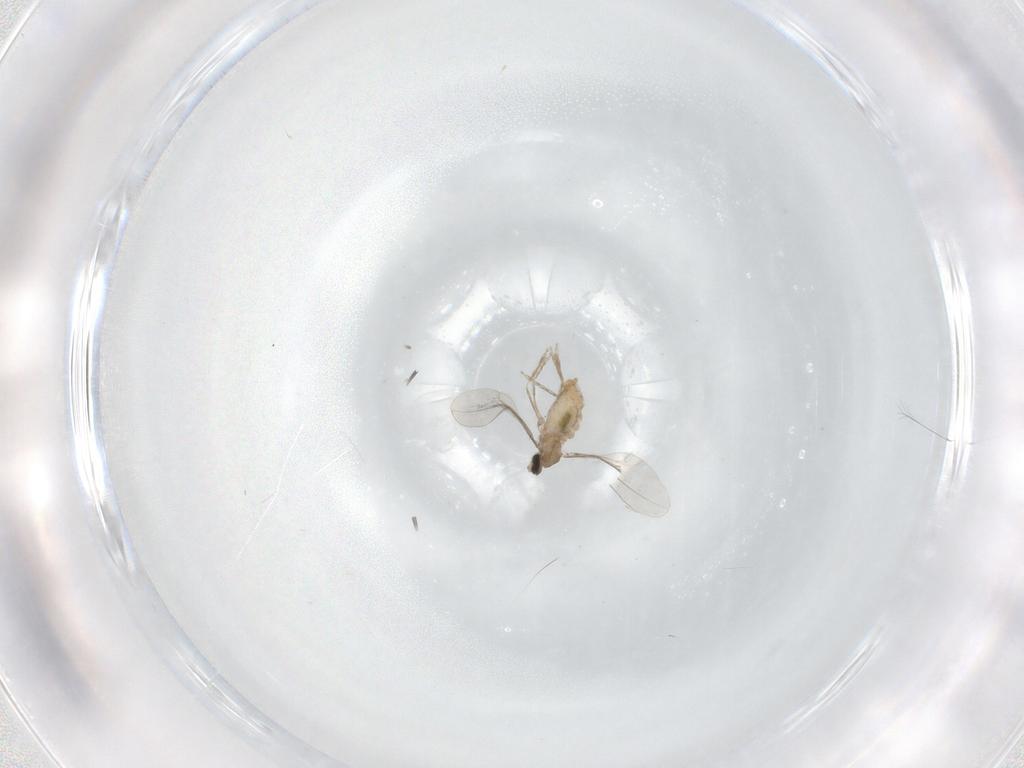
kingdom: Animalia
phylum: Arthropoda
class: Insecta
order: Diptera
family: Cecidomyiidae
